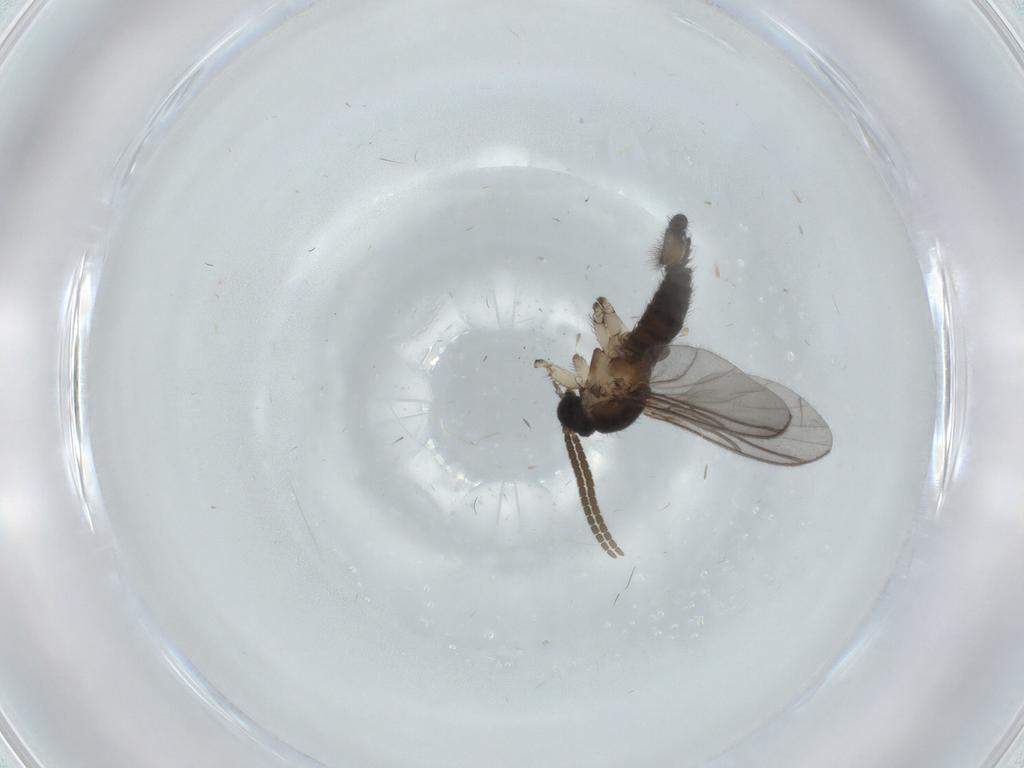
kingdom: Animalia
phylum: Arthropoda
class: Insecta
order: Diptera
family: Sciaridae
